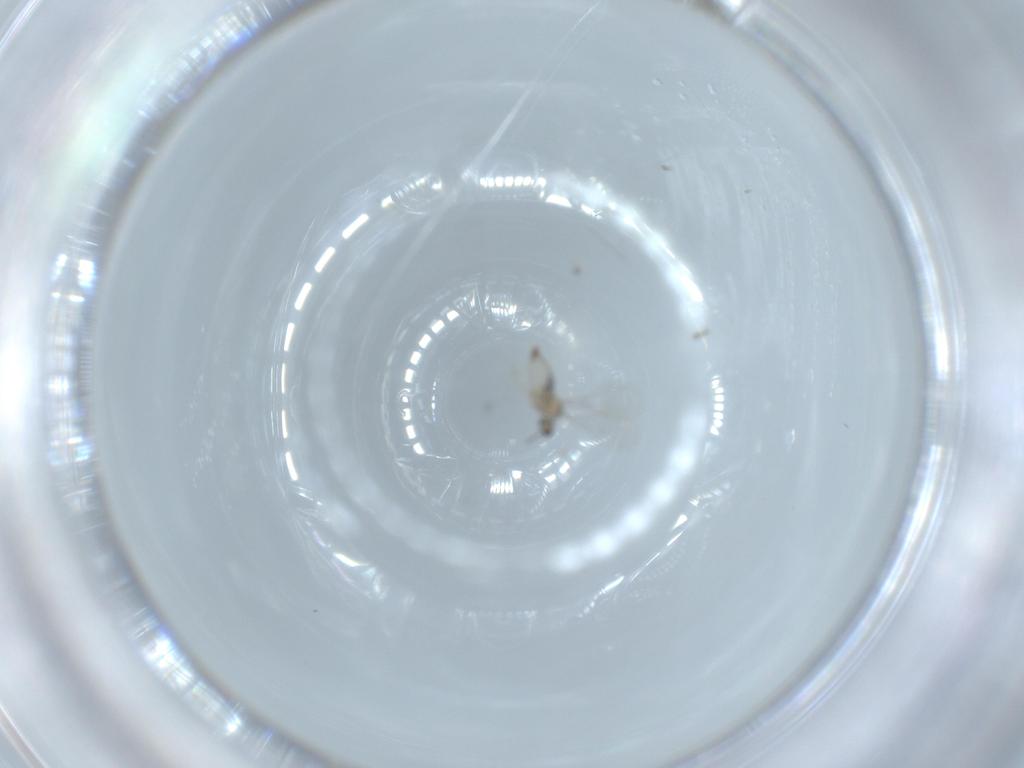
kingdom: Animalia
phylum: Arthropoda
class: Insecta
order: Diptera
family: Cecidomyiidae
